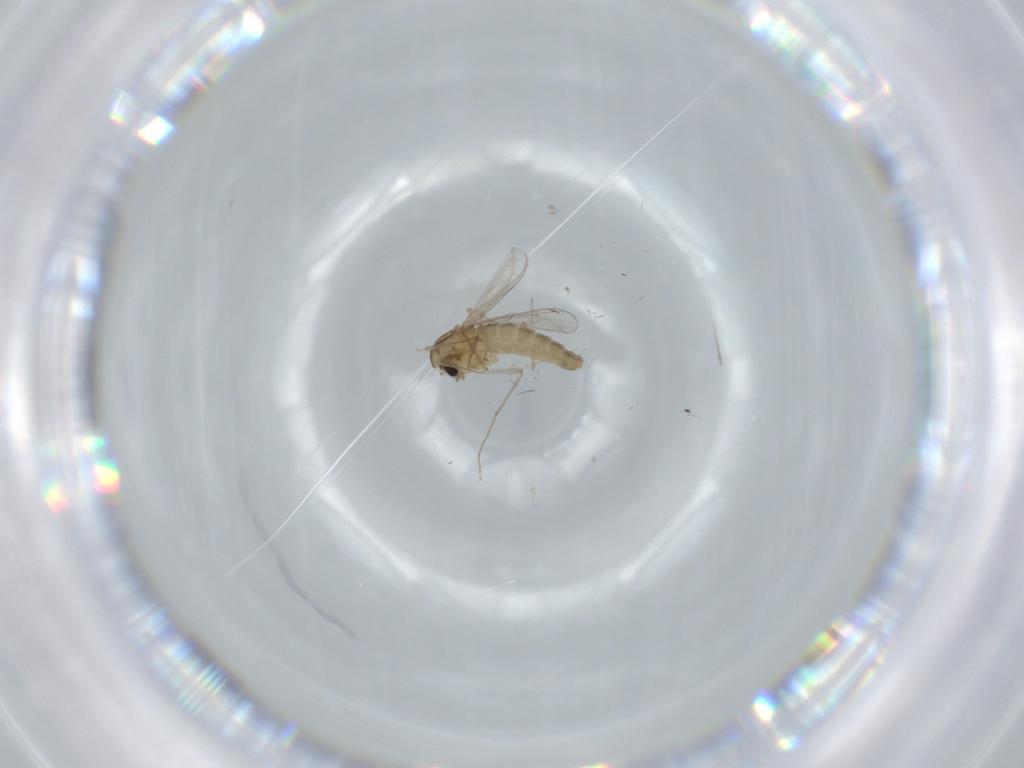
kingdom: Animalia
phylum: Arthropoda
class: Insecta
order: Diptera
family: Chironomidae
